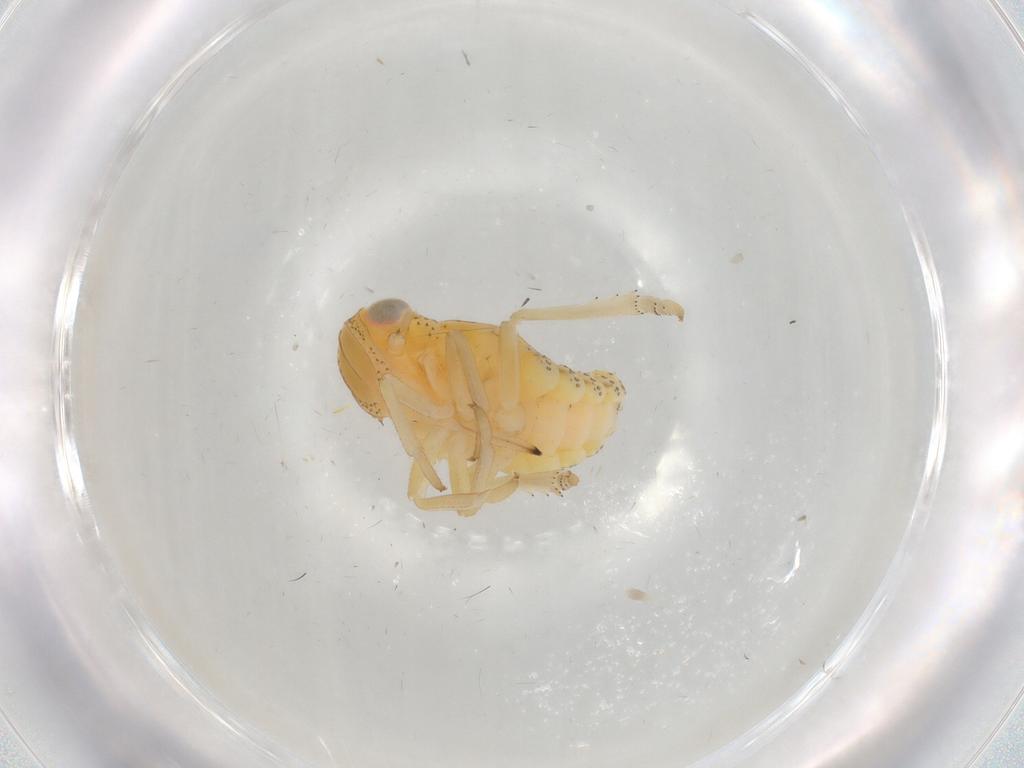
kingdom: Animalia
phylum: Arthropoda
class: Insecta
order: Hemiptera
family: Tropiduchidae
